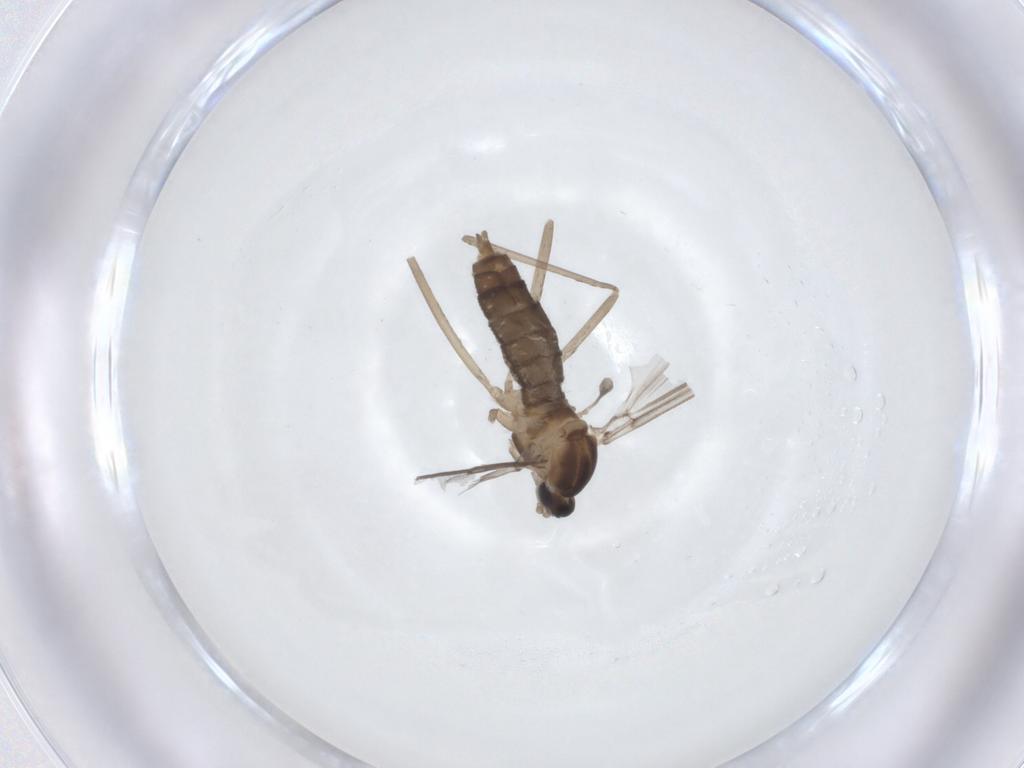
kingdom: Animalia
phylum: Arthropoda
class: Insecta
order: Diptera
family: Cecidomyiidae
